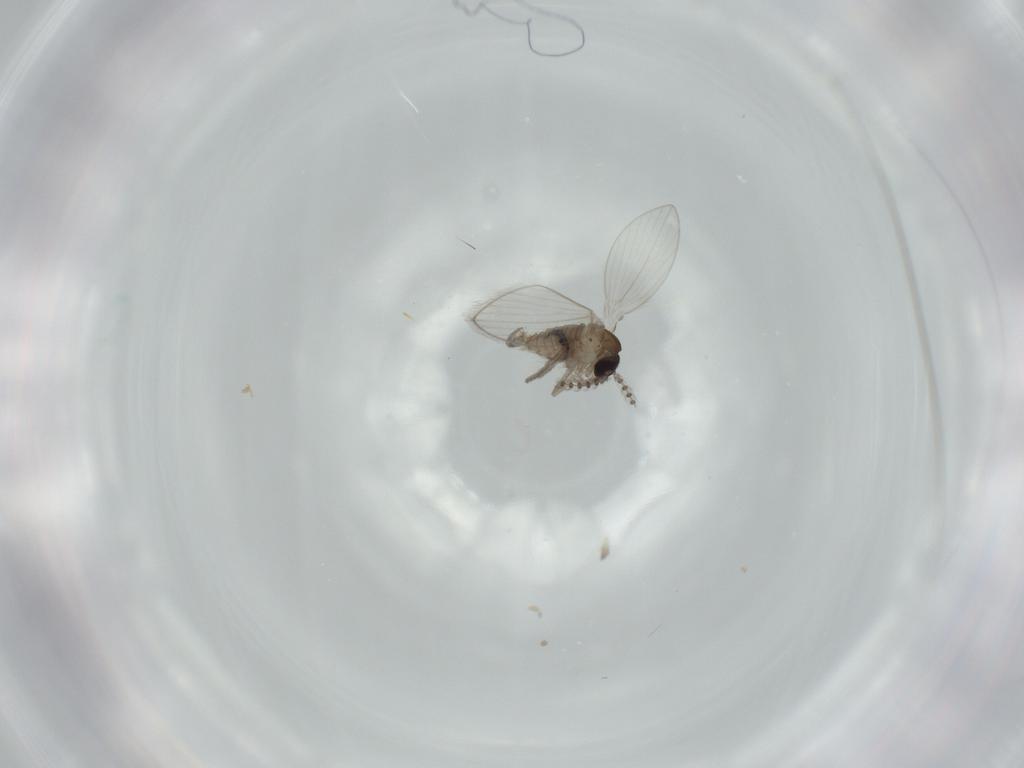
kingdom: Animalia
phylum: Arthropoda
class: Insecta
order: Diptera
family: Psychodidae
